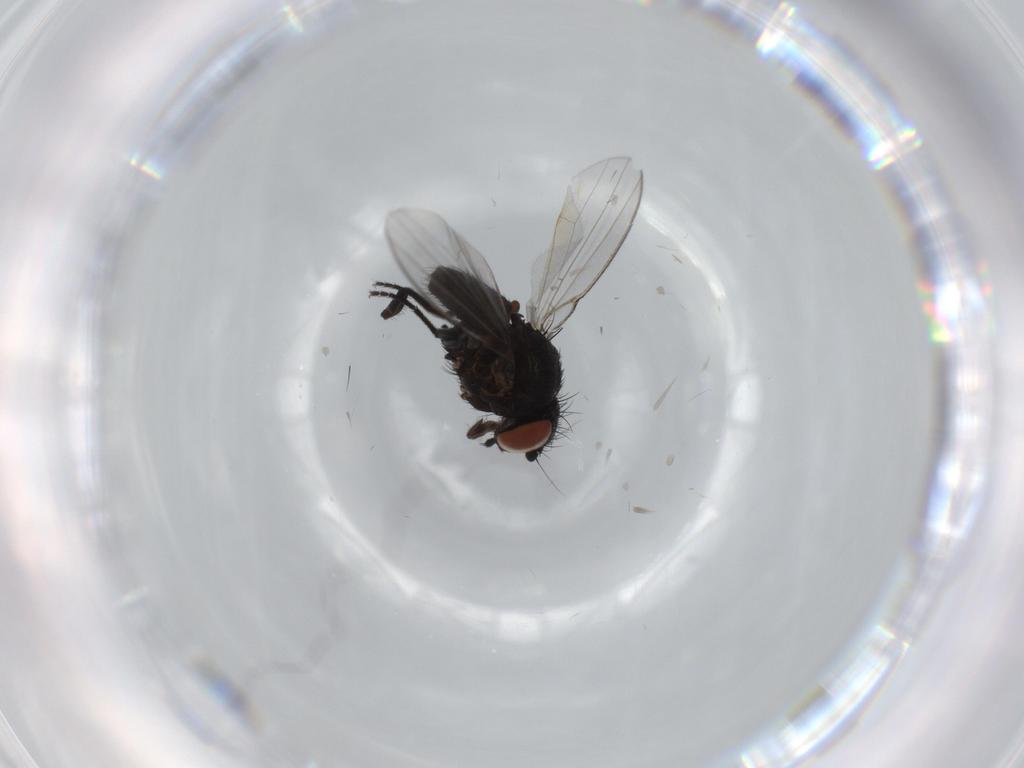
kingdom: Animalia
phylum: Arthropoda
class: Insecta
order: Diptera
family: Milichiidae
